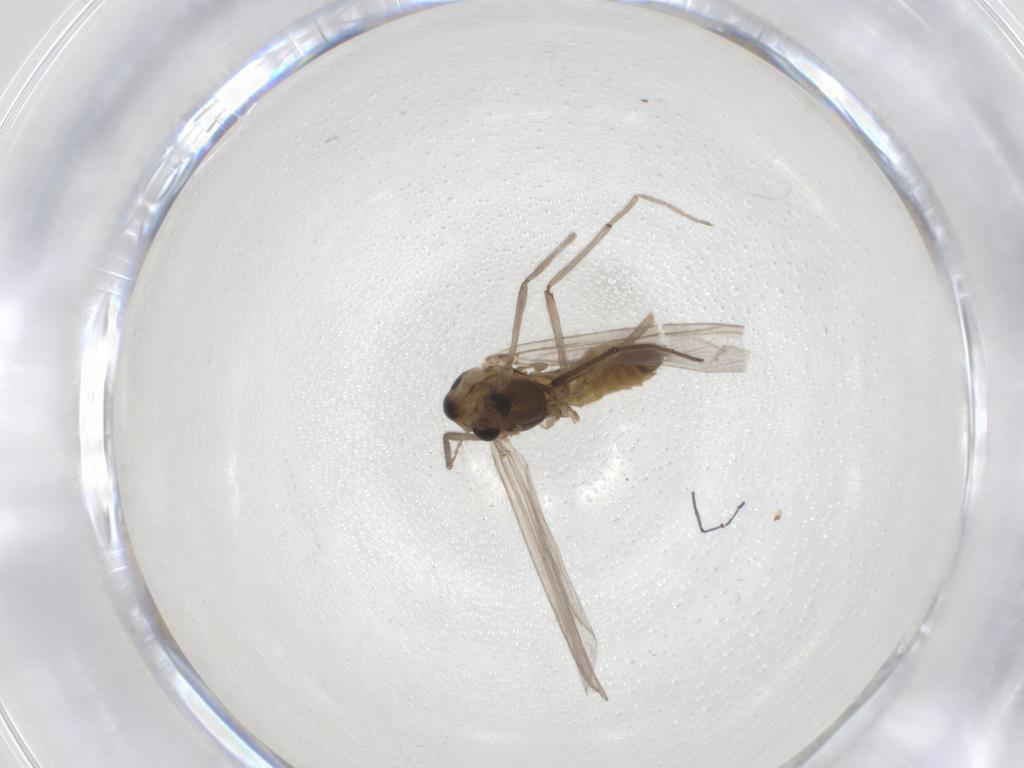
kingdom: Animalia
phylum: Arthropoda
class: Insecta
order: Diptera
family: Chironomidae
